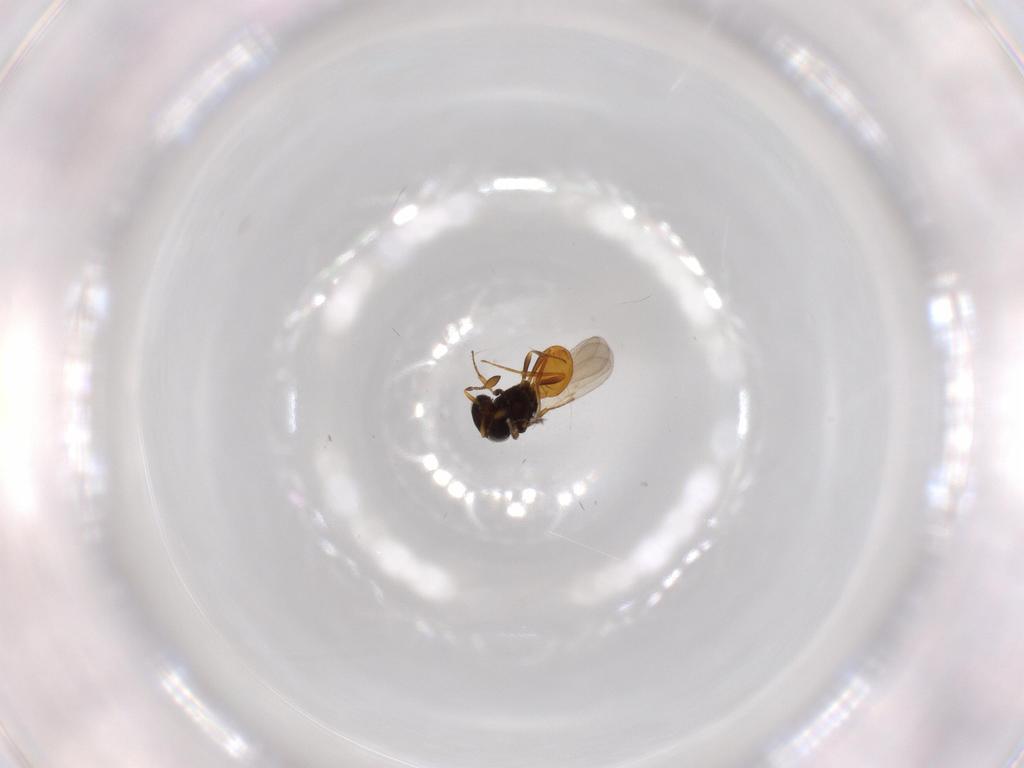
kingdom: Animalia
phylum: Arthropoda
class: Insecta
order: Hymenoptera
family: Scelionidae
